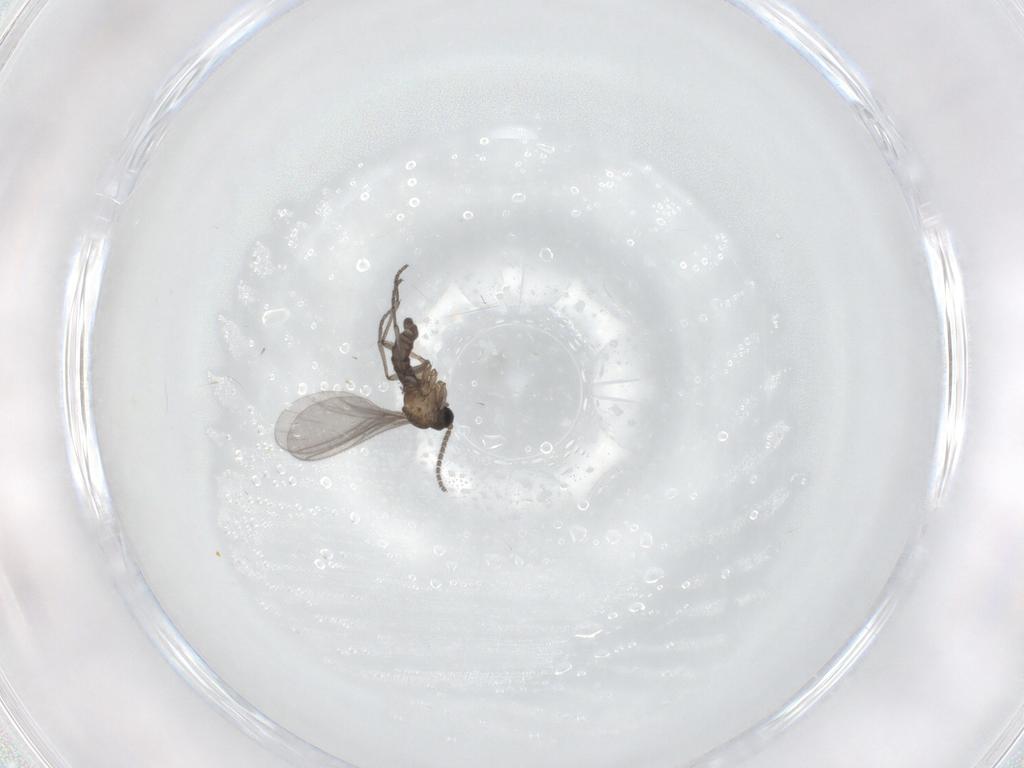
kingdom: Animalia
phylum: Arthropoda
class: Insecta
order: Diptera
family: Sciaridae
